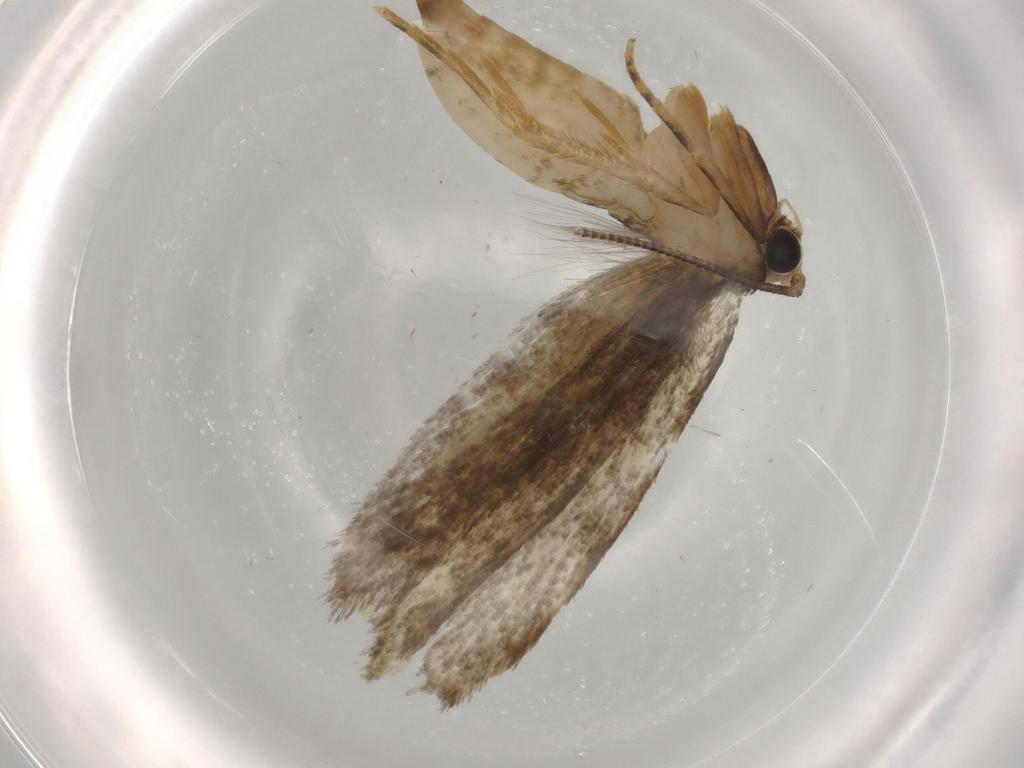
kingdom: Animalia
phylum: Arthropoda
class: Insecta
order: Lepidoptera
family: Tineidae
